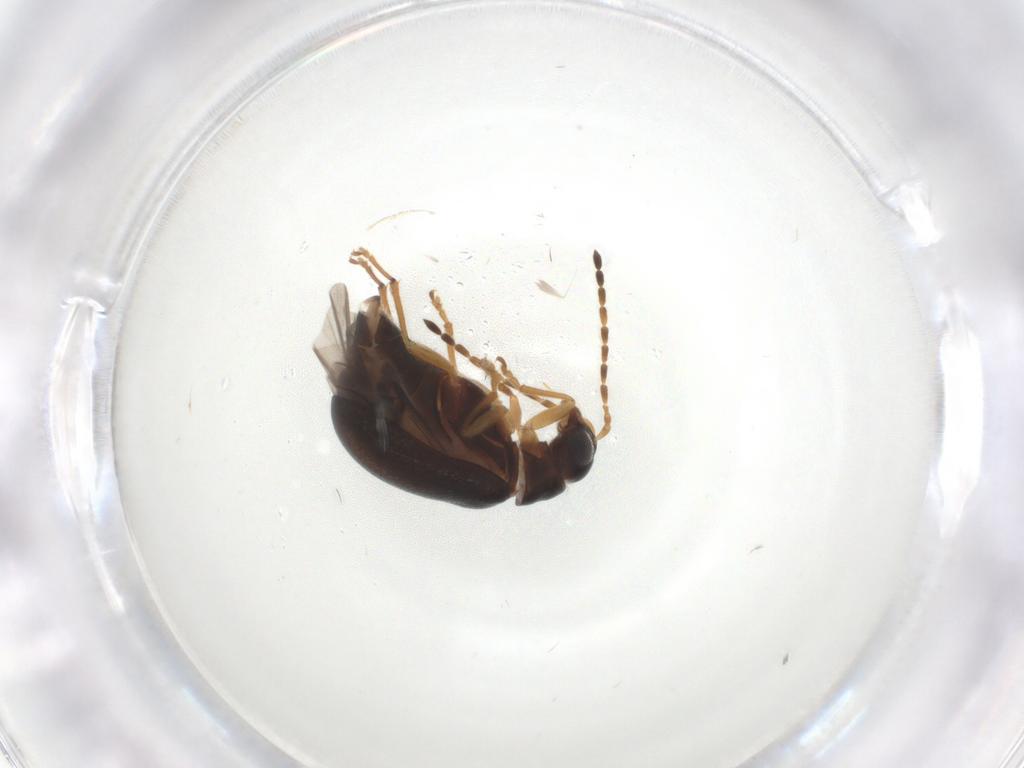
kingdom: Animalia
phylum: Arthropoda
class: Insecta
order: Coleoptera
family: Chrysomelidae
